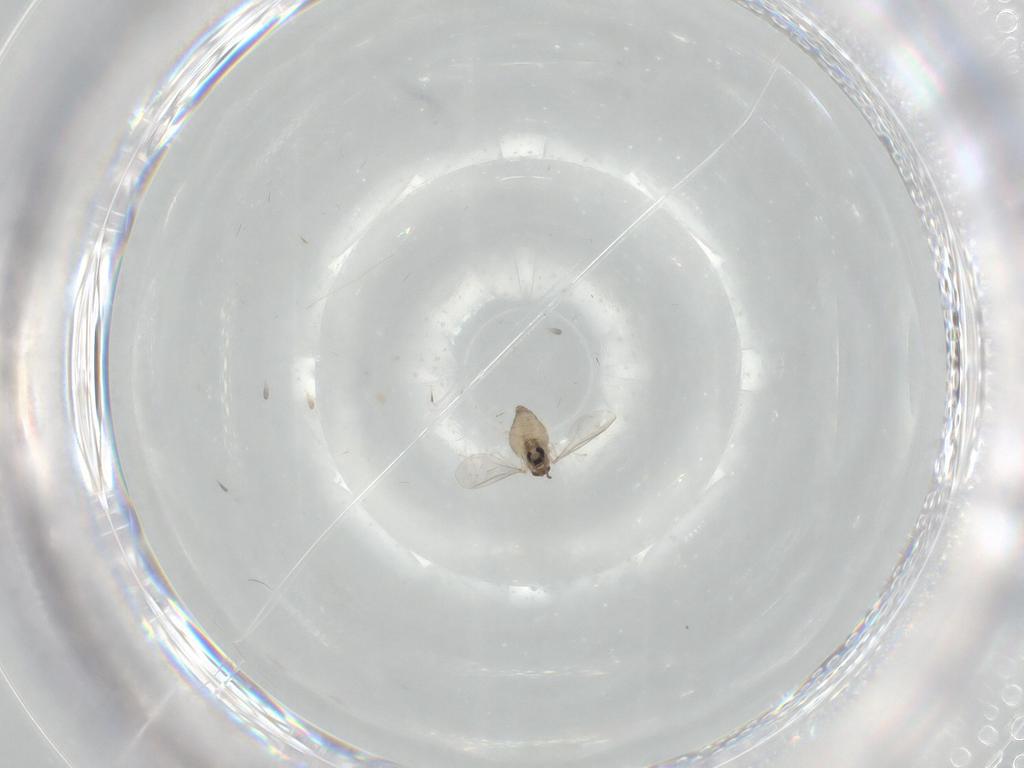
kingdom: Animalia
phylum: Arthropoda
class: Insecta
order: Diptera
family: Cecidomyiidae
